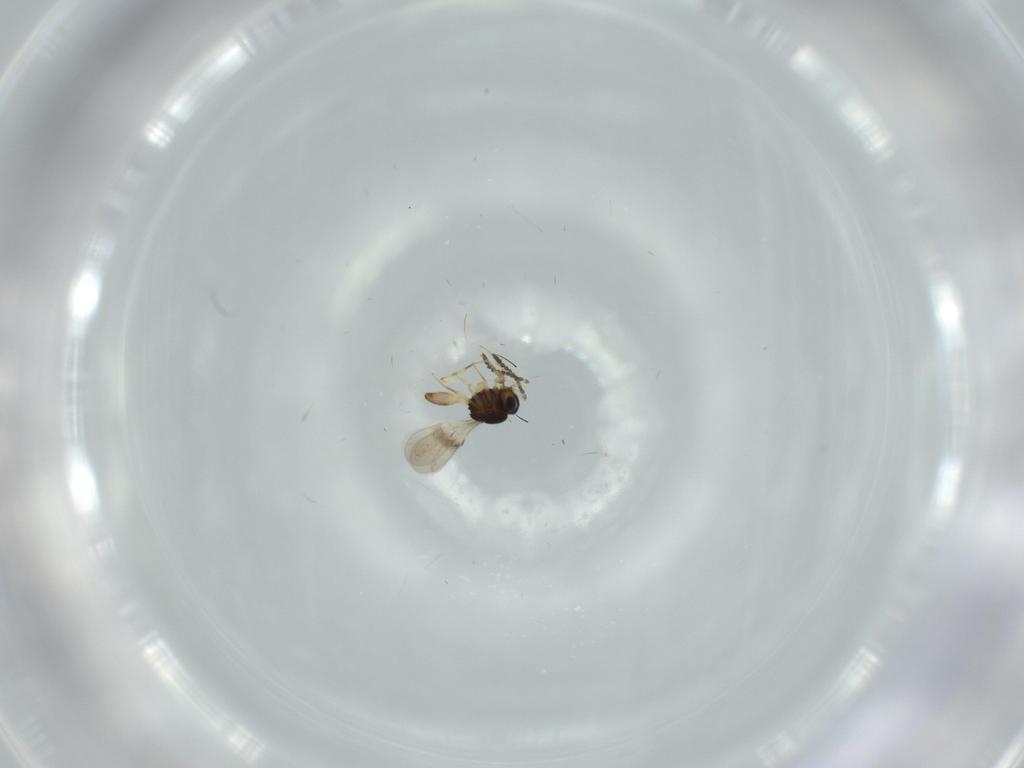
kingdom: Animalia
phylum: Arthropoda
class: Insecta
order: Hymenoptera
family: Scelionidae
